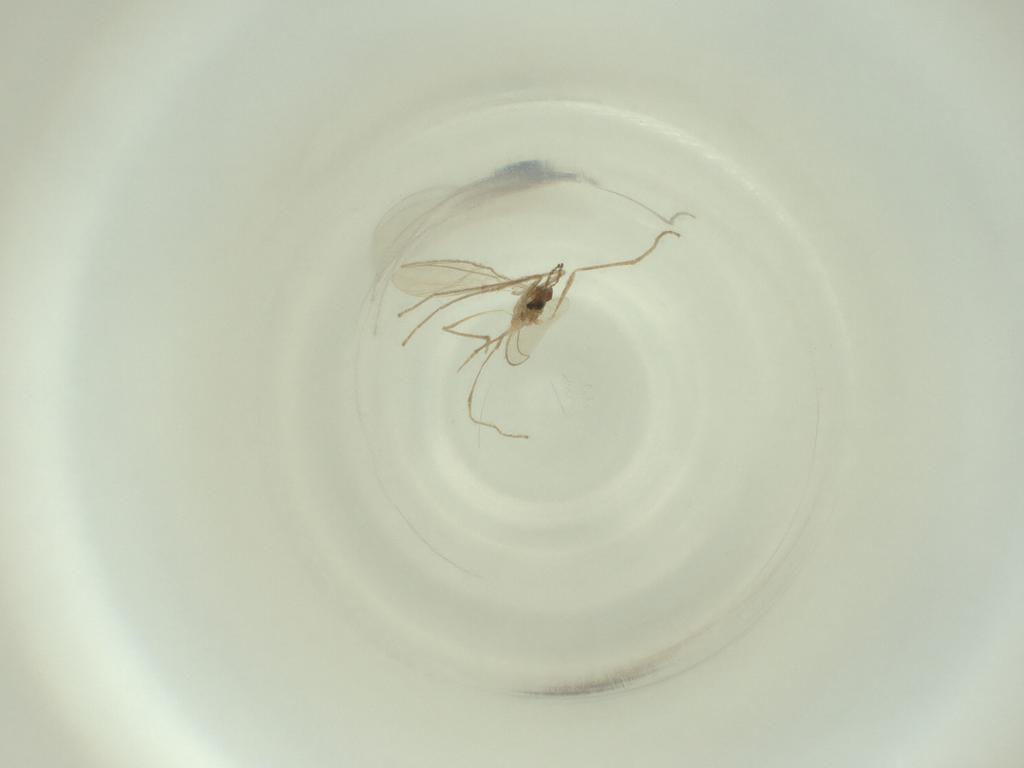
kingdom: Animalia
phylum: Arthropoda
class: Insecta
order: Diptera
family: Cecidomyiidae
